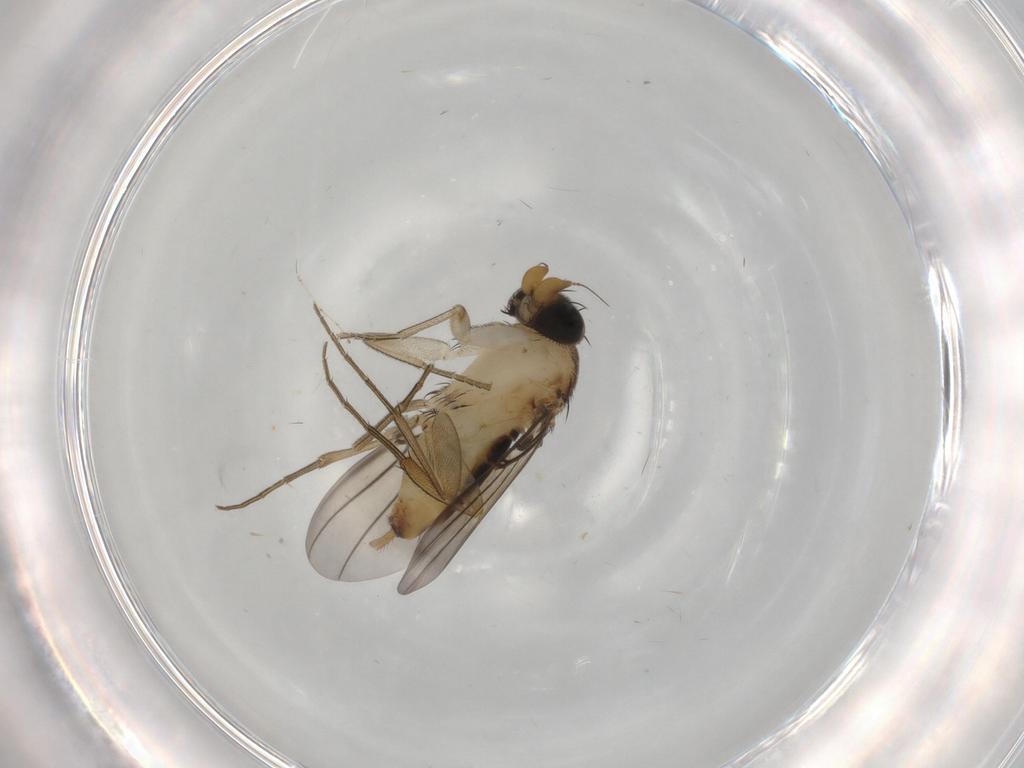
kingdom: Animalia
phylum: Arthropoda
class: Insecta
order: Diptera
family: Phoridae
